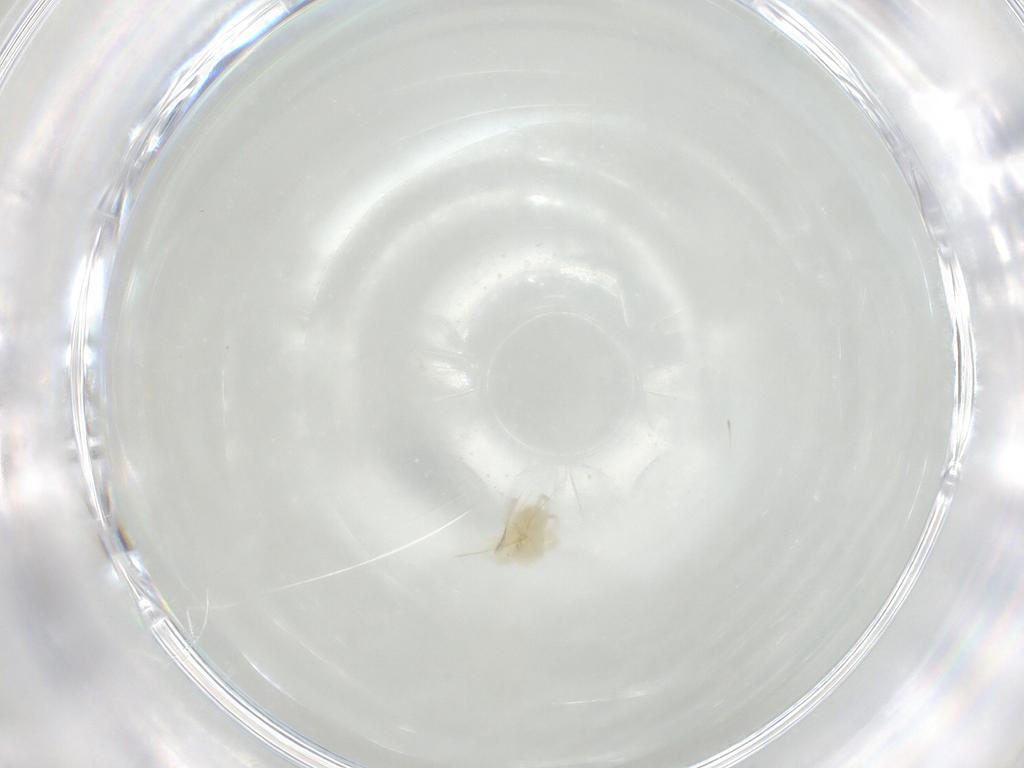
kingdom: Animalia
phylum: Arthropoda
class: Arachnida
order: Trombidiformes
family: Anystidae
